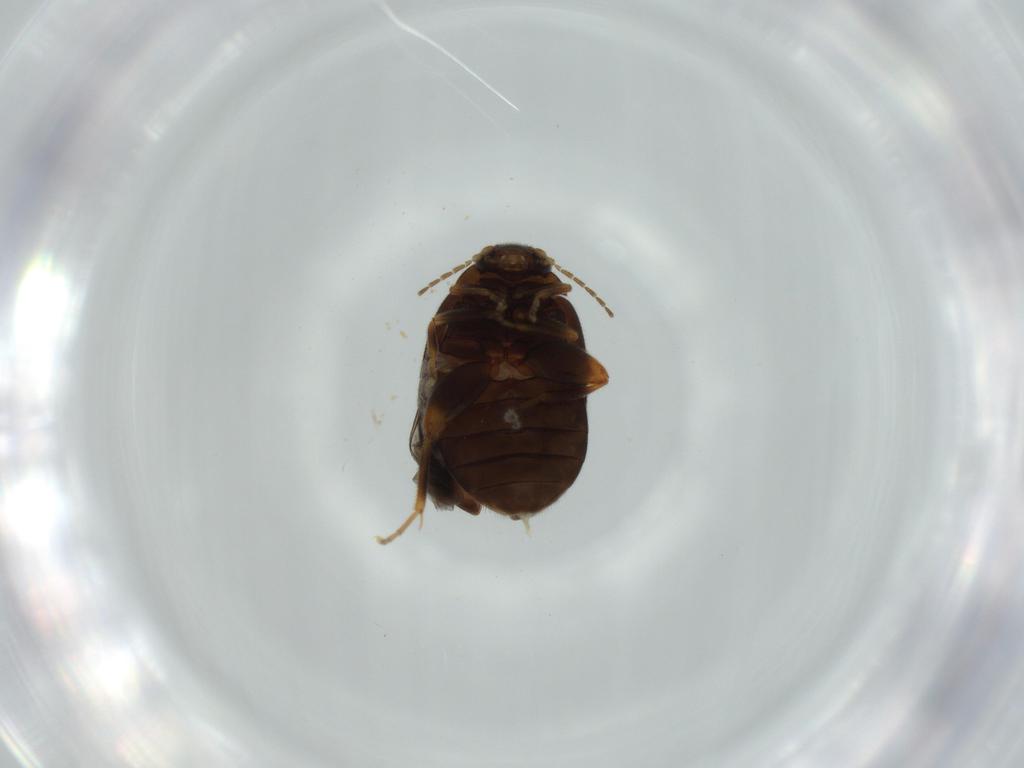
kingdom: Animalia
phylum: Arthropoda
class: Insecta
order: Coleoptera
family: Scirtidae
